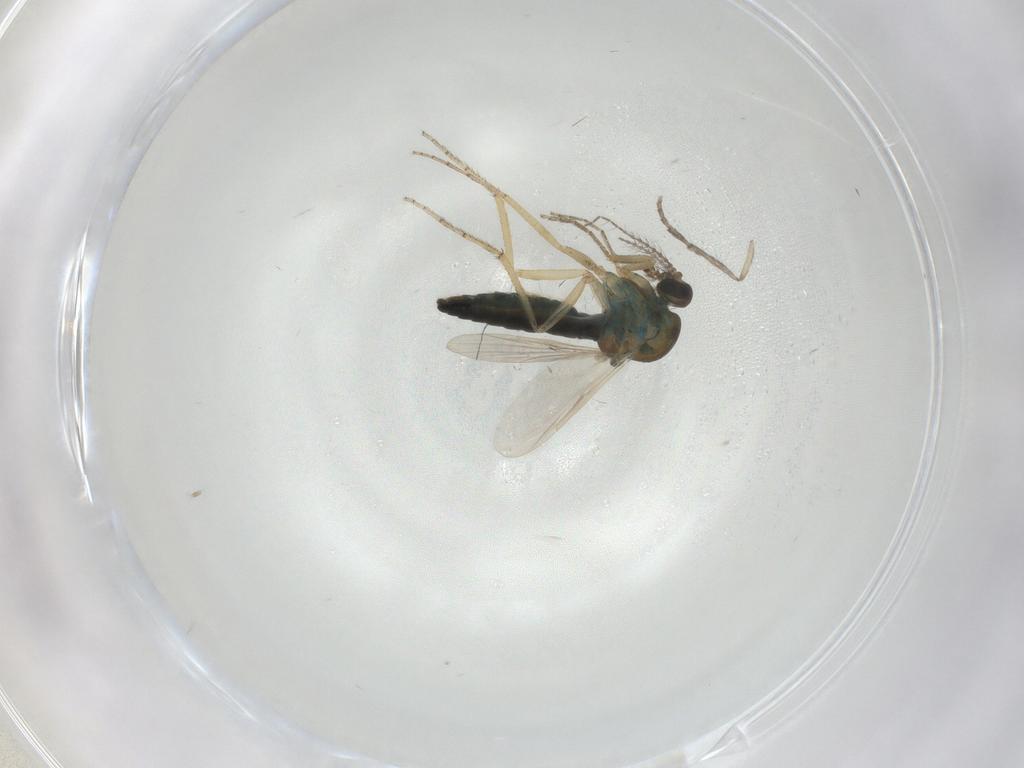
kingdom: Animalia
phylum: Arthropoda
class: Insecta
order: Diptera
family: Ceratopogonidae
